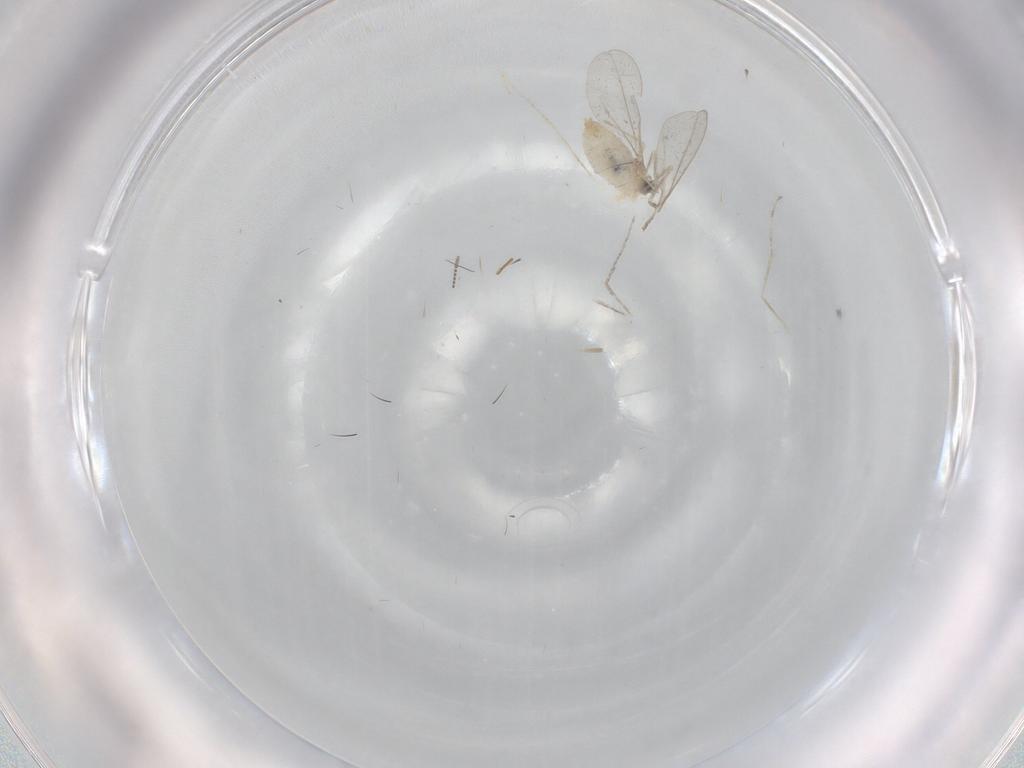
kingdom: Animalia
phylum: Arthropoda
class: Insecta
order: Diptera
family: Cecidomyiidae
